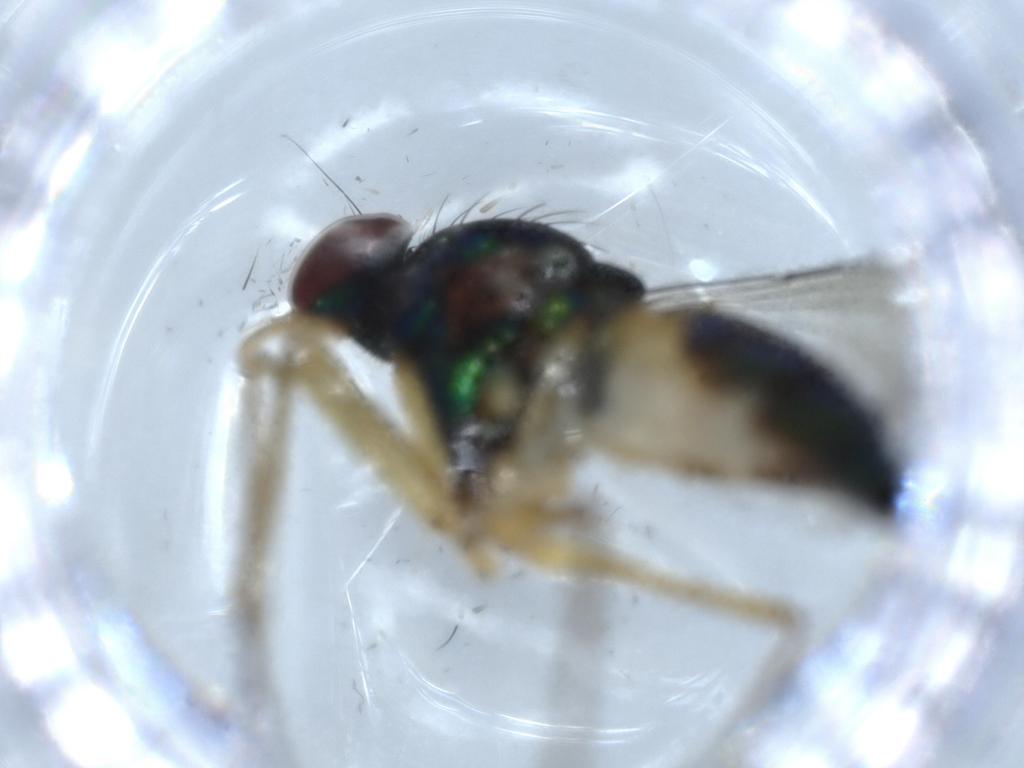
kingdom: Animalia
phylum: Arthropoda
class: Insecta
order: Diptera
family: Dolichopodidae
